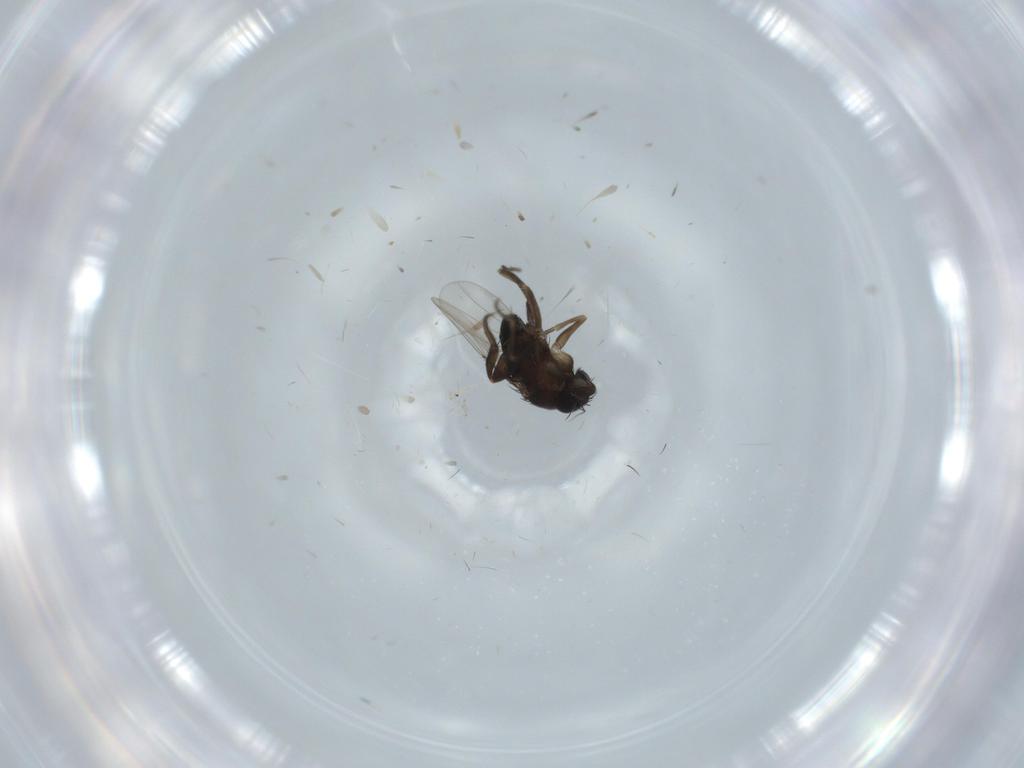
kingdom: Animalia
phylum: Arthropoda
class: Insecta
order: Diptera
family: Phoridae
